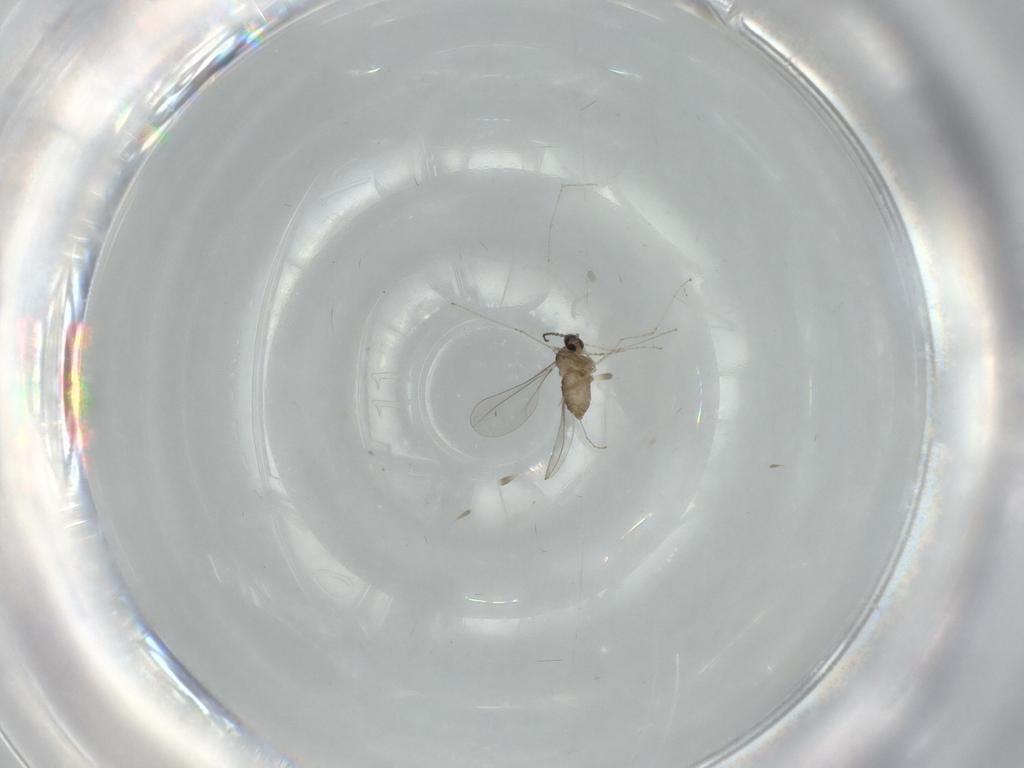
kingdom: Animalia
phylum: Arthropoda
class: Insecta
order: Diptera
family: Cecidomyiidae
